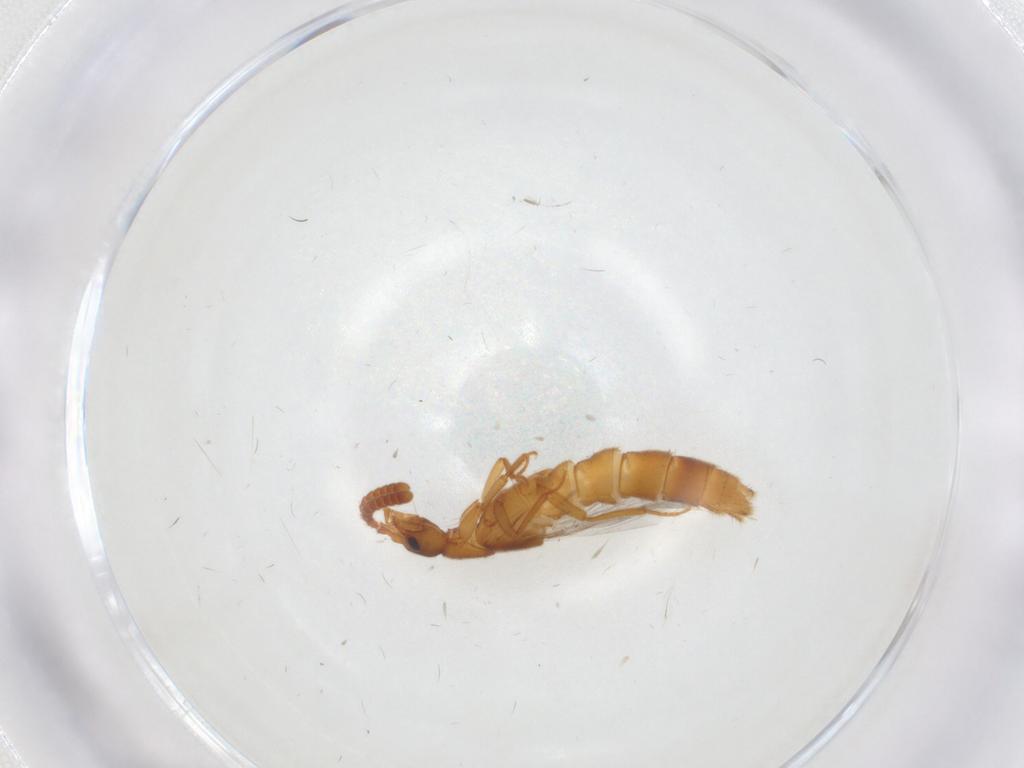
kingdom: Animalia
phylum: Arthropoda
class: Insecta
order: Coleoptera
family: Staphylinidae
